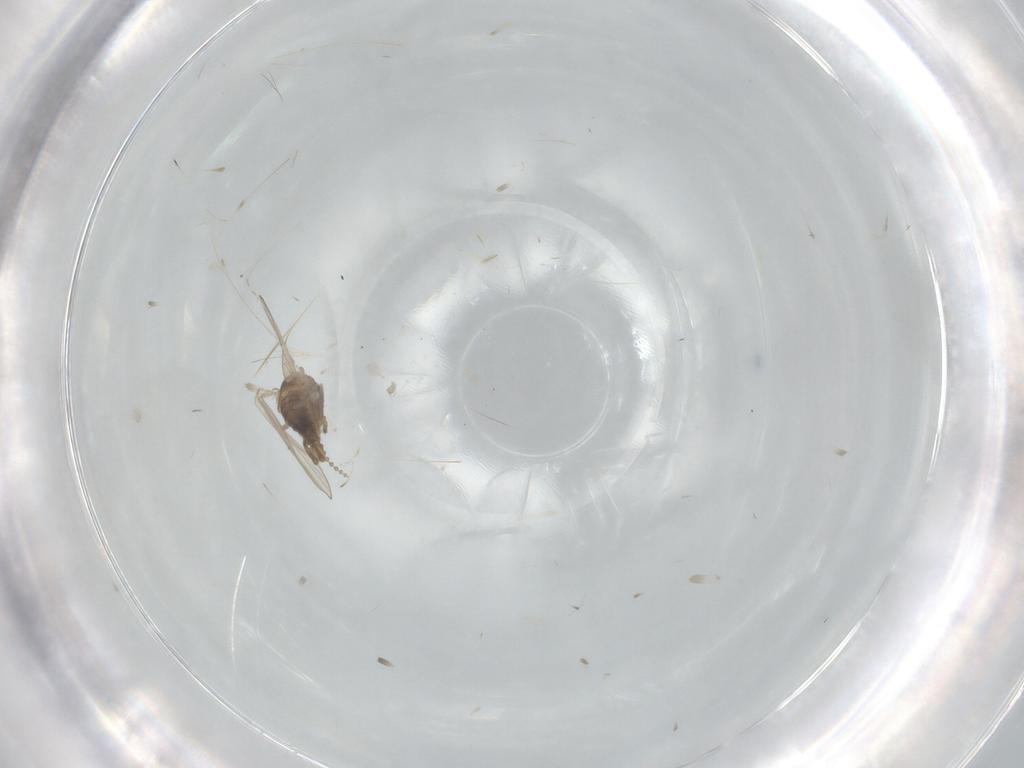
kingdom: Animalia
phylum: Arthropoda
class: Insecta
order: Diptera
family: Psychodidae
